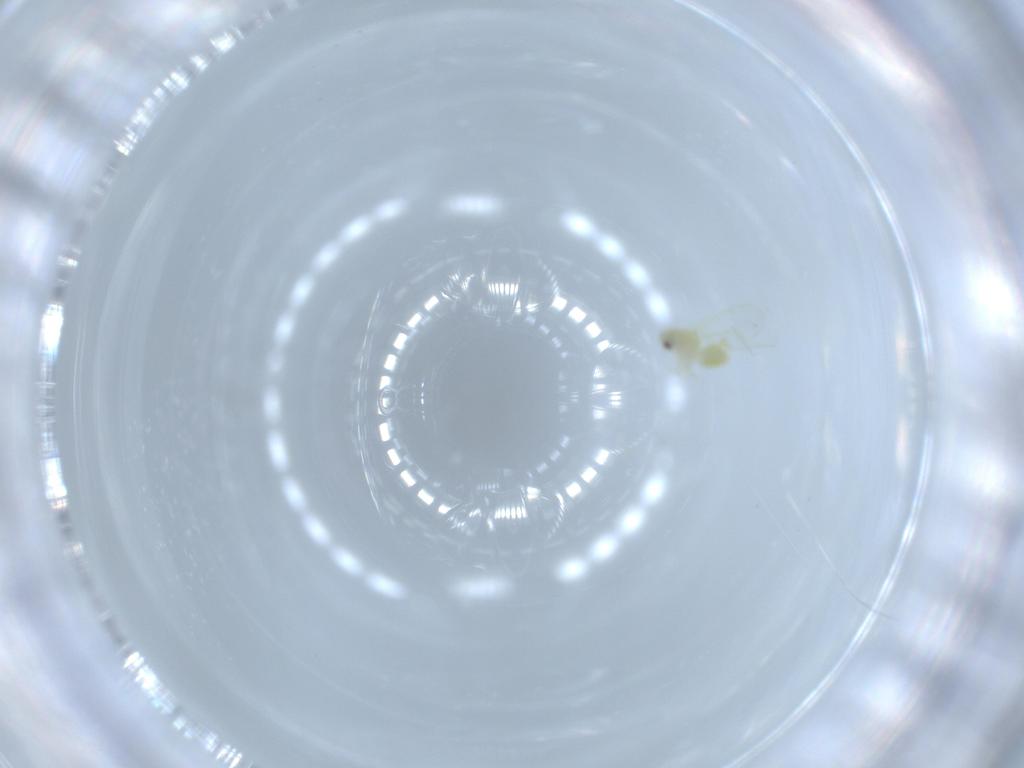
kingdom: Animalia
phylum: Arthropoda
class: Insecta
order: Hemiptera
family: Aleyrodidae
